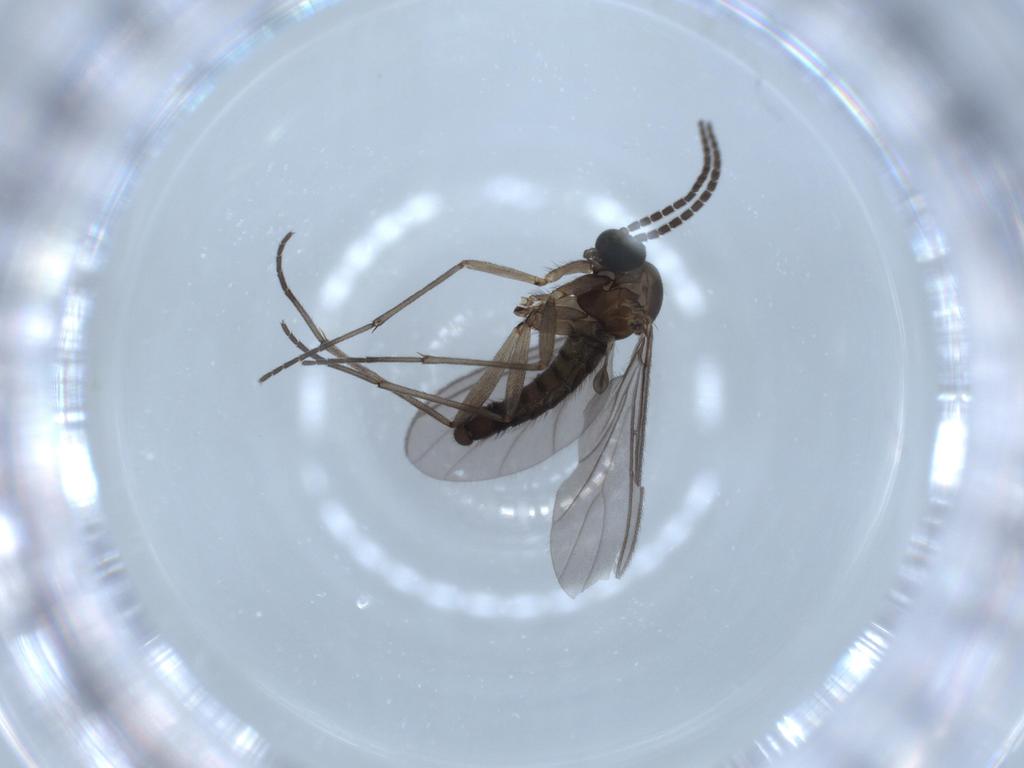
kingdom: Animalia
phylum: Arthropoda
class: Insecta
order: Diptera
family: Sciaridae
